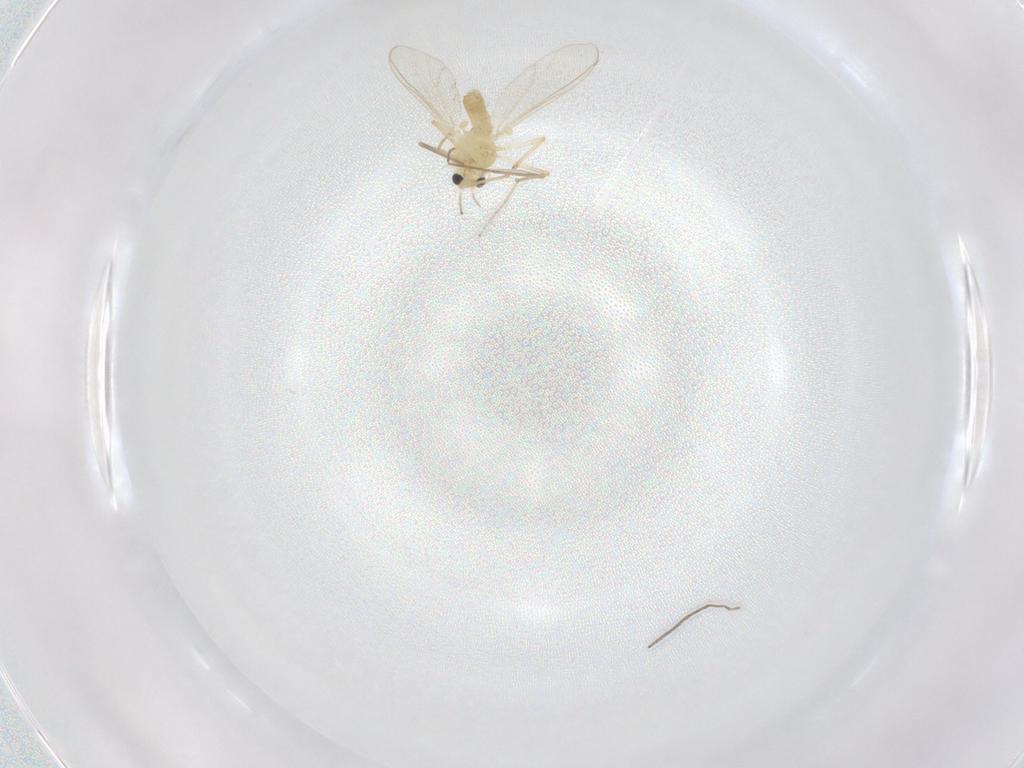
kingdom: Animalia
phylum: Arthropoda
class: Insecta
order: Diptera
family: Chironomidae
